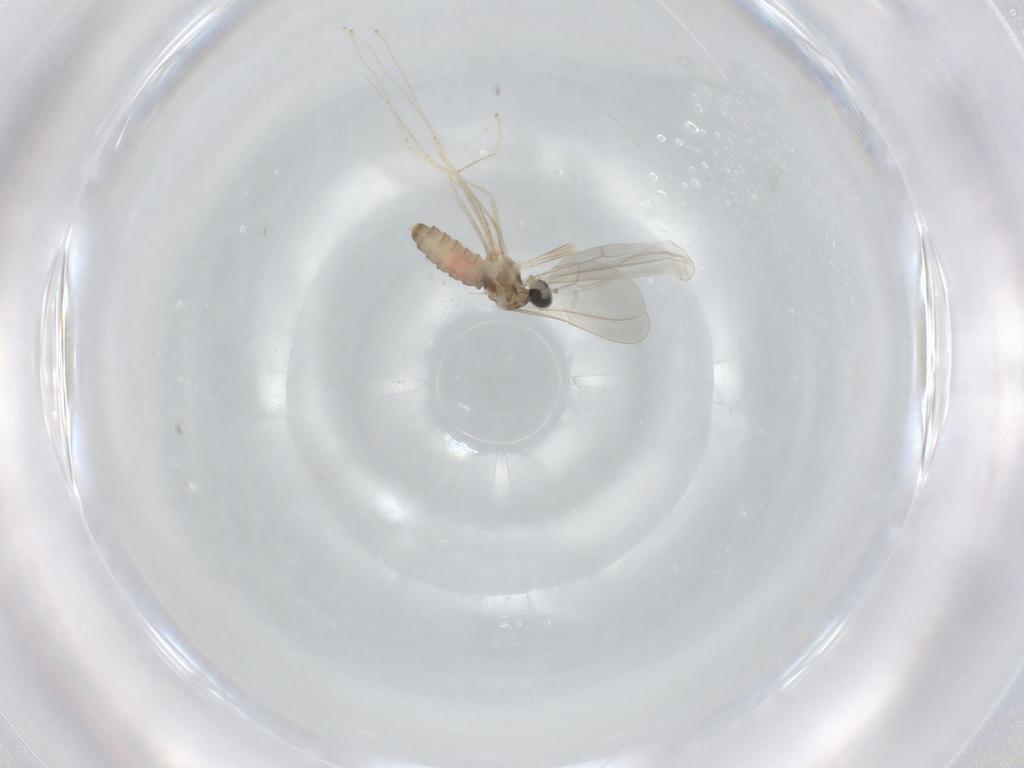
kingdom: Animalia
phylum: Arthropoda
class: Insecta
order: Diptera
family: Cecidomyiidae
